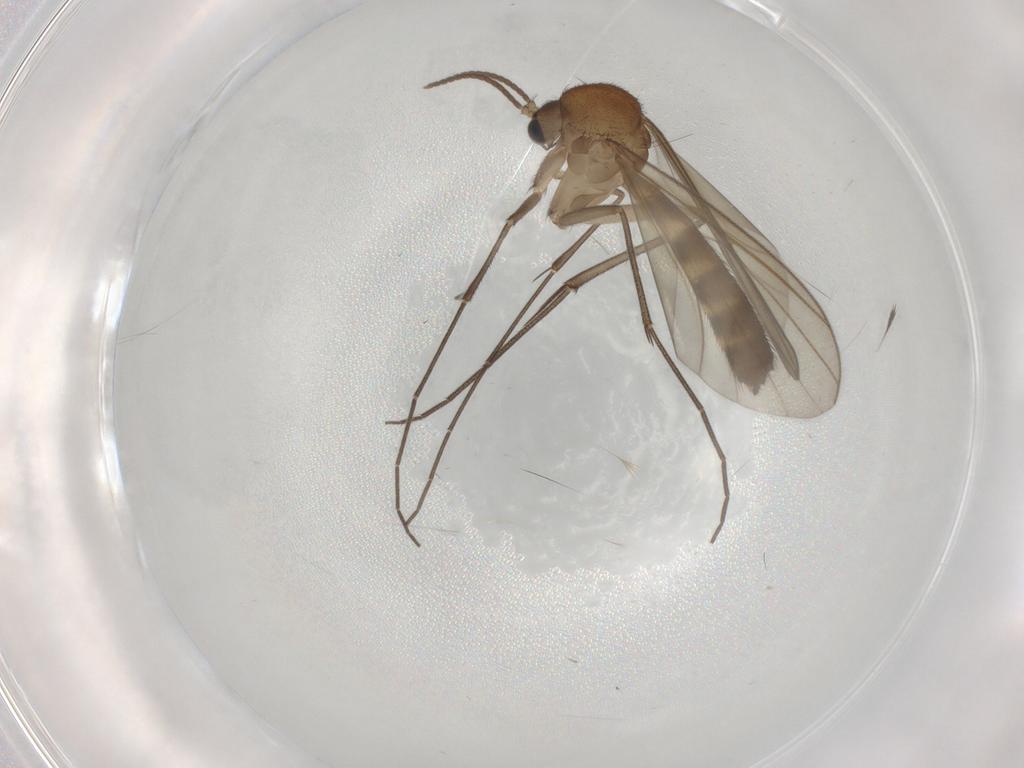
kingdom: Animalia
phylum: Arthropoda
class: Insecta
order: Diptera
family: Mycetophilidae
